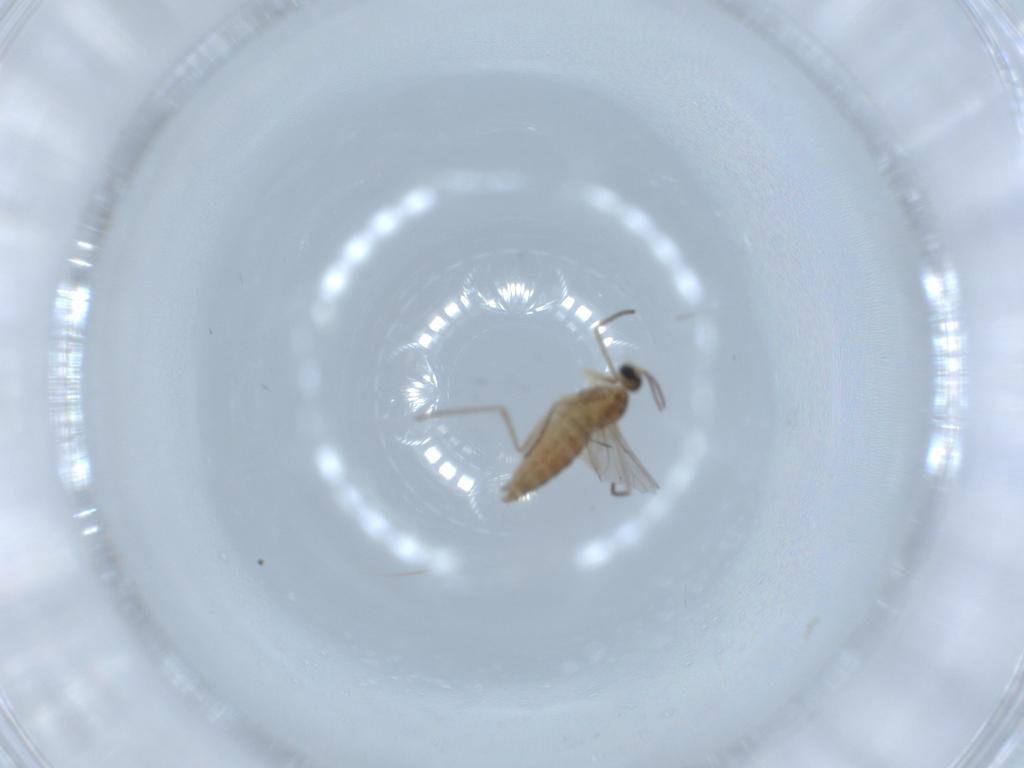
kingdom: Animalia
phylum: Arthropoda
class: Insecta
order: Diptera
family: Cecidomyiidae
